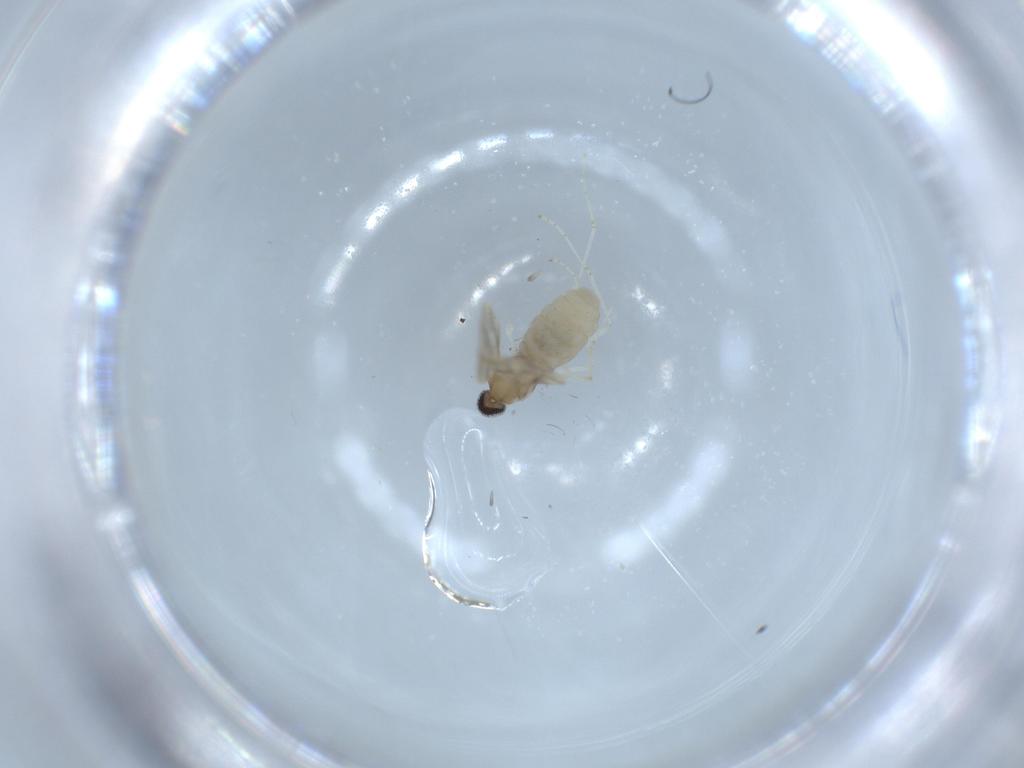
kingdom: Animalia
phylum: Arthropoda
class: Insecta
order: Diptera
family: Cecidomyiidae
